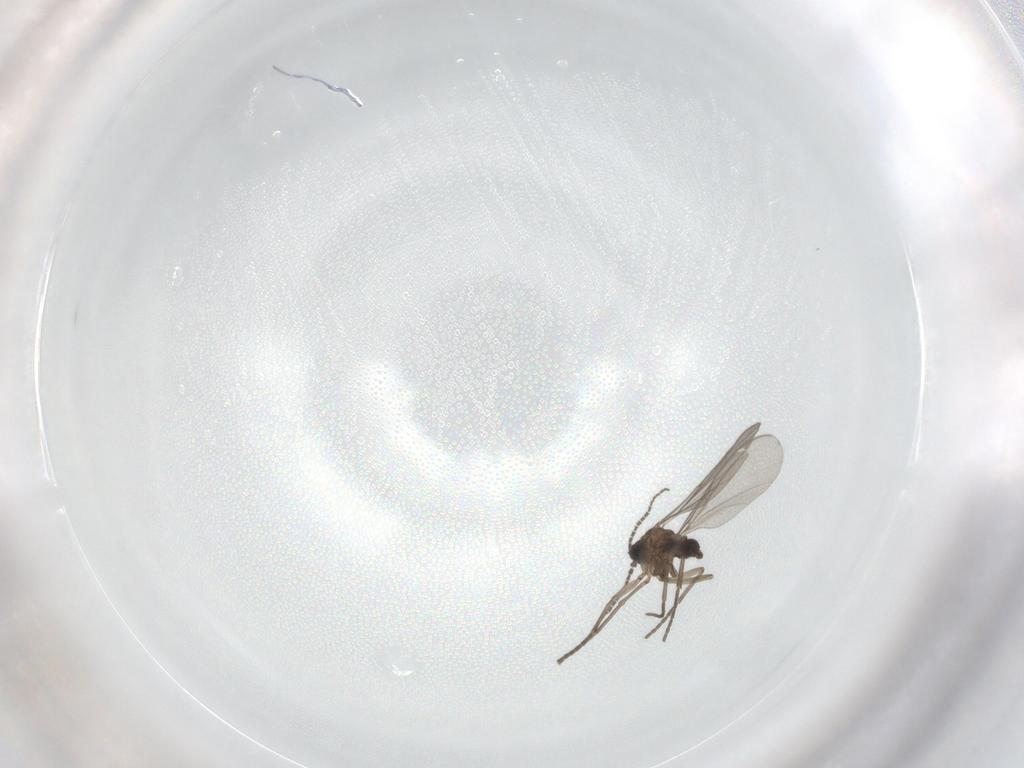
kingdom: Animalia
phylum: Arthropoda
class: Insecta
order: Diptera
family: Chironomidae
